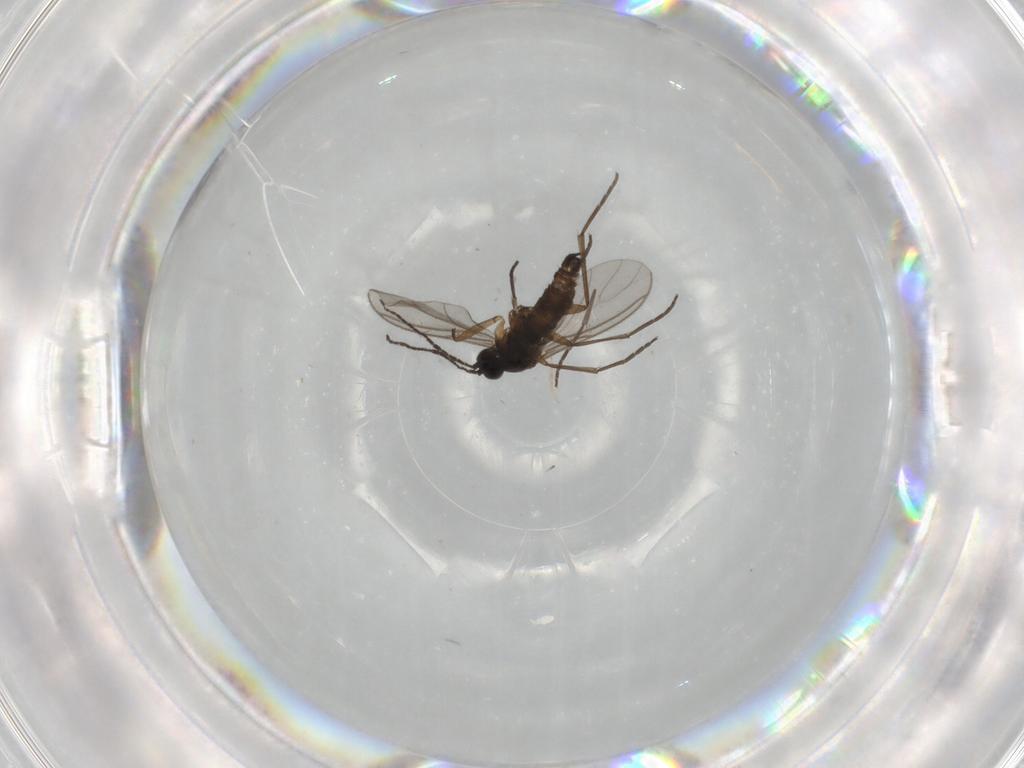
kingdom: Animalia
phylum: Arthropoda
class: Insecta
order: Diptera
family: Sciaridae
